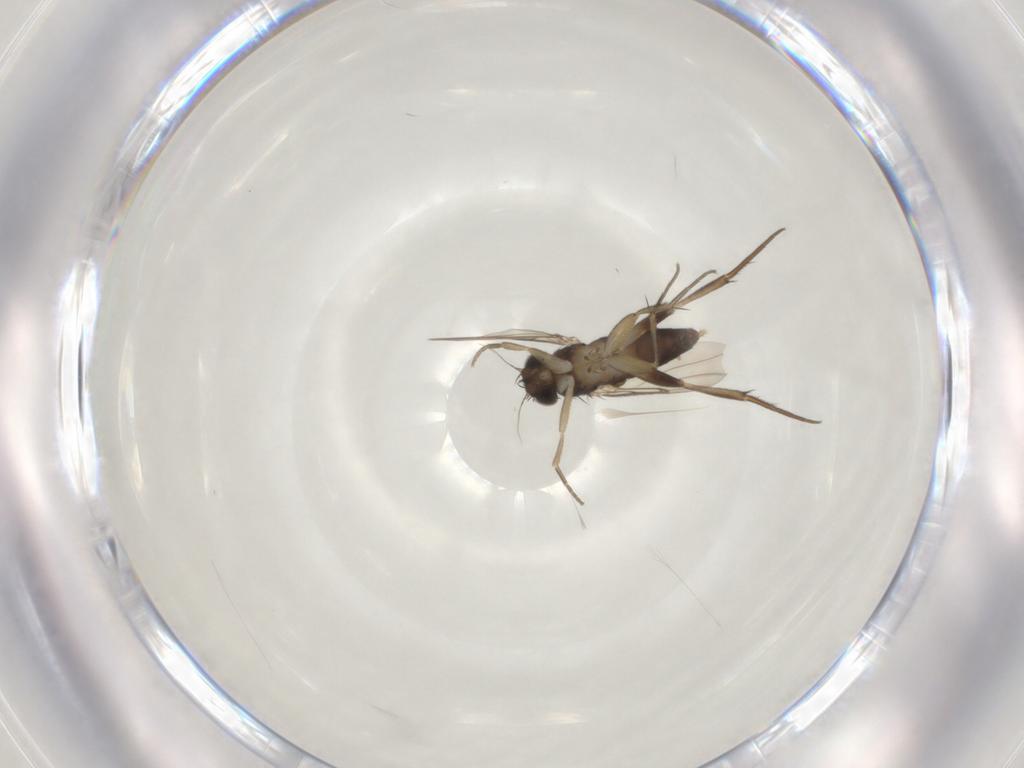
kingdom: Animalia
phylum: Arthropoda
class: Insecta
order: Diptera
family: Phoridae
